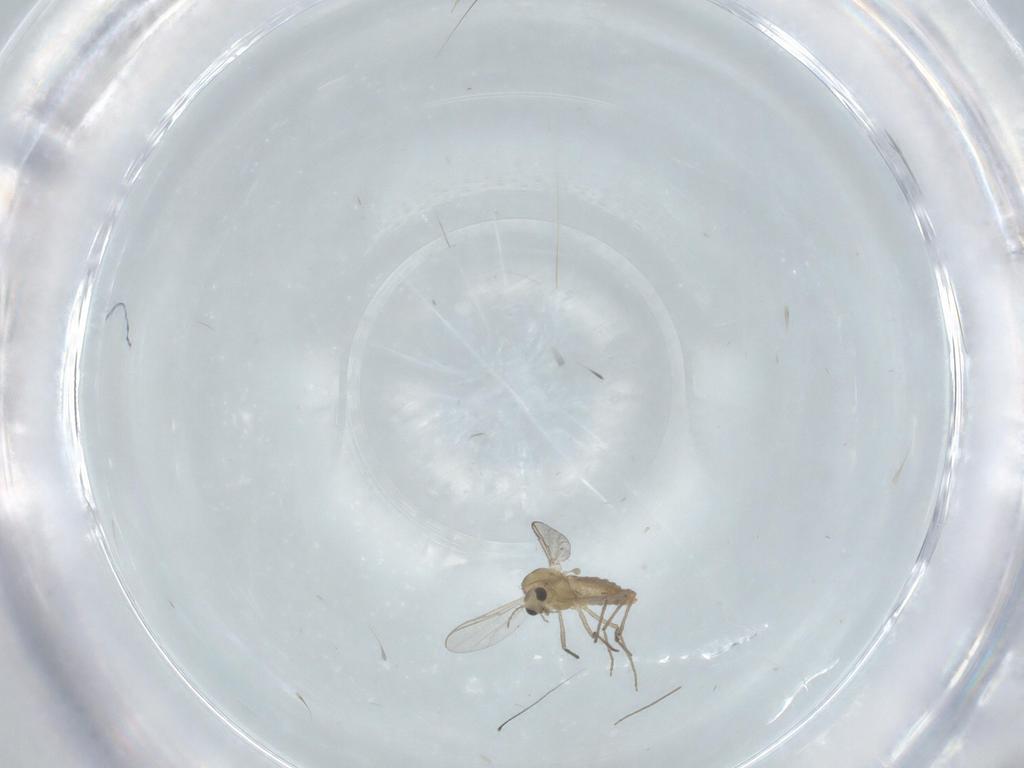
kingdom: Animalia
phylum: Arthropoda
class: Insecta
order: Diptera
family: Chironomidae
